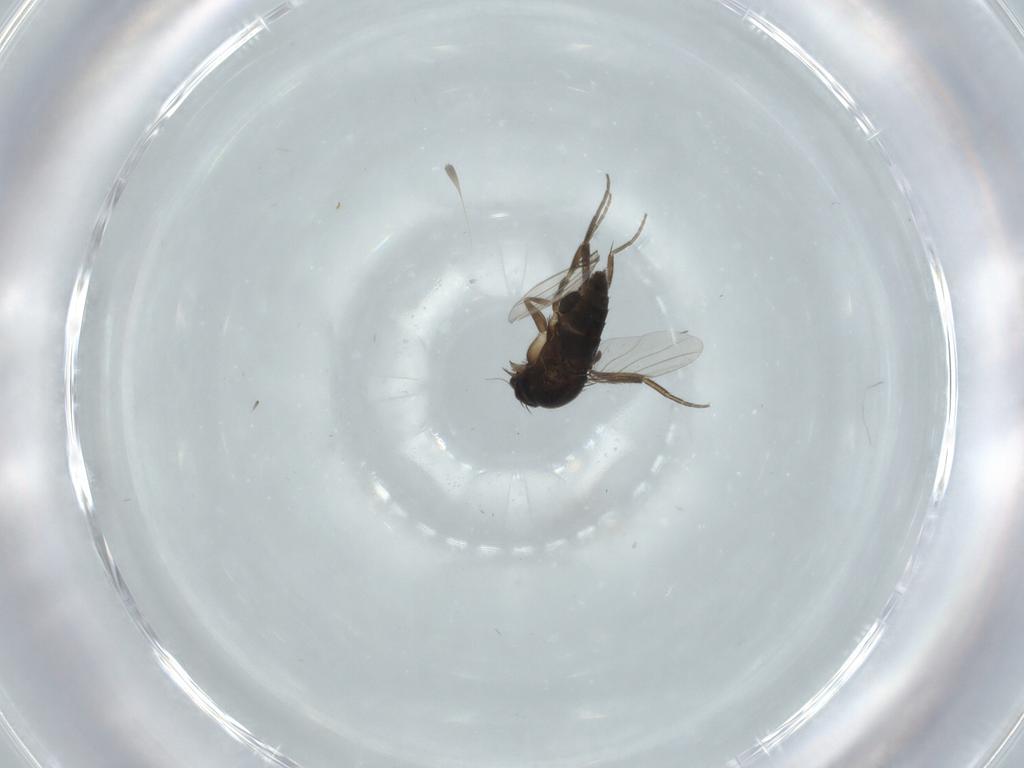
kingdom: Animalia
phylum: Arthropoda
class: Insecta
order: Diptera
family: Phoridae
